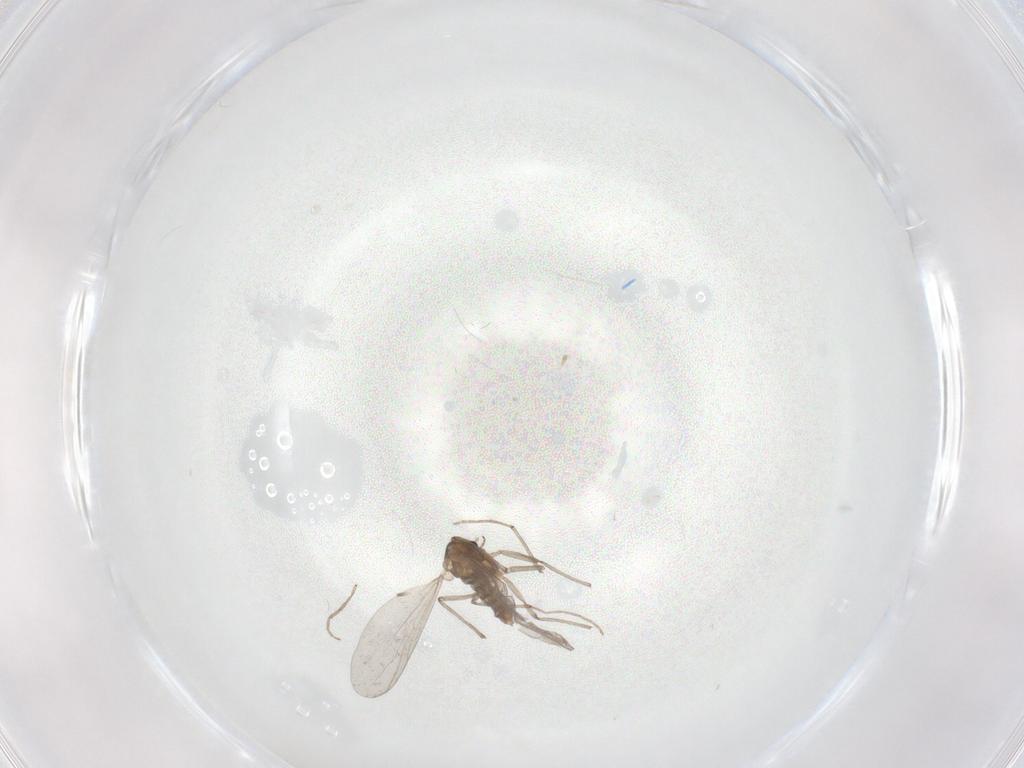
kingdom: Animalia
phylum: Arthropoda
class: Insecta
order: Diptera
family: Chironomidae
